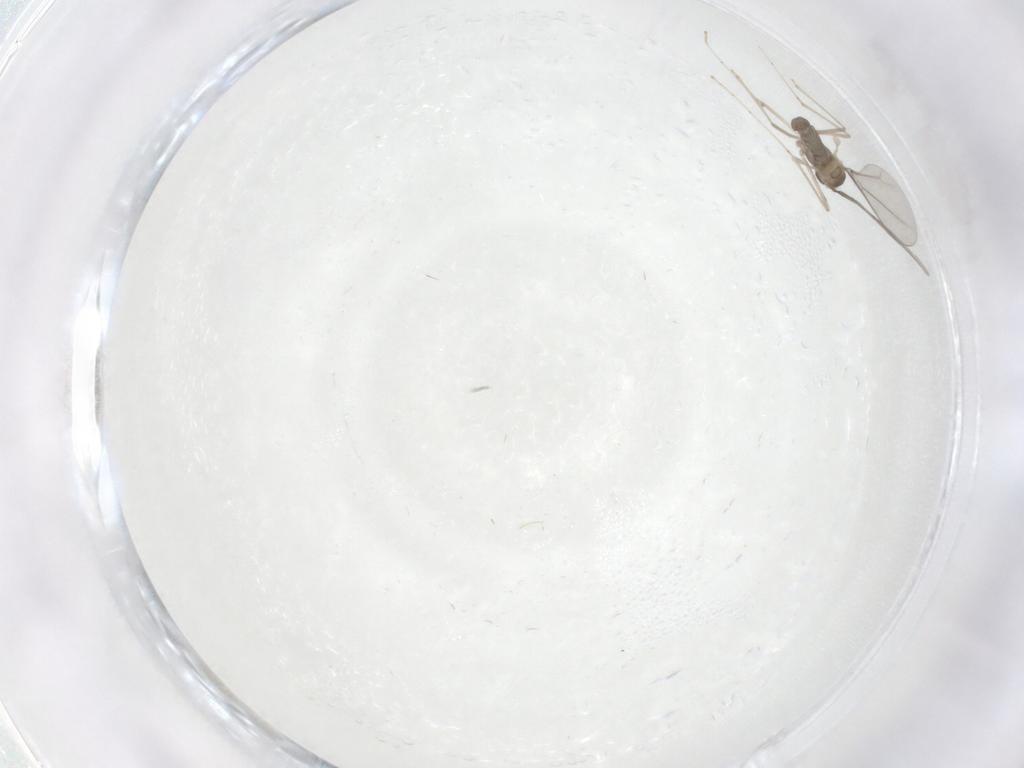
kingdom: Animalia
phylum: Arthropoda
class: Insecta
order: Diptera
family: Cecidomyiidae
